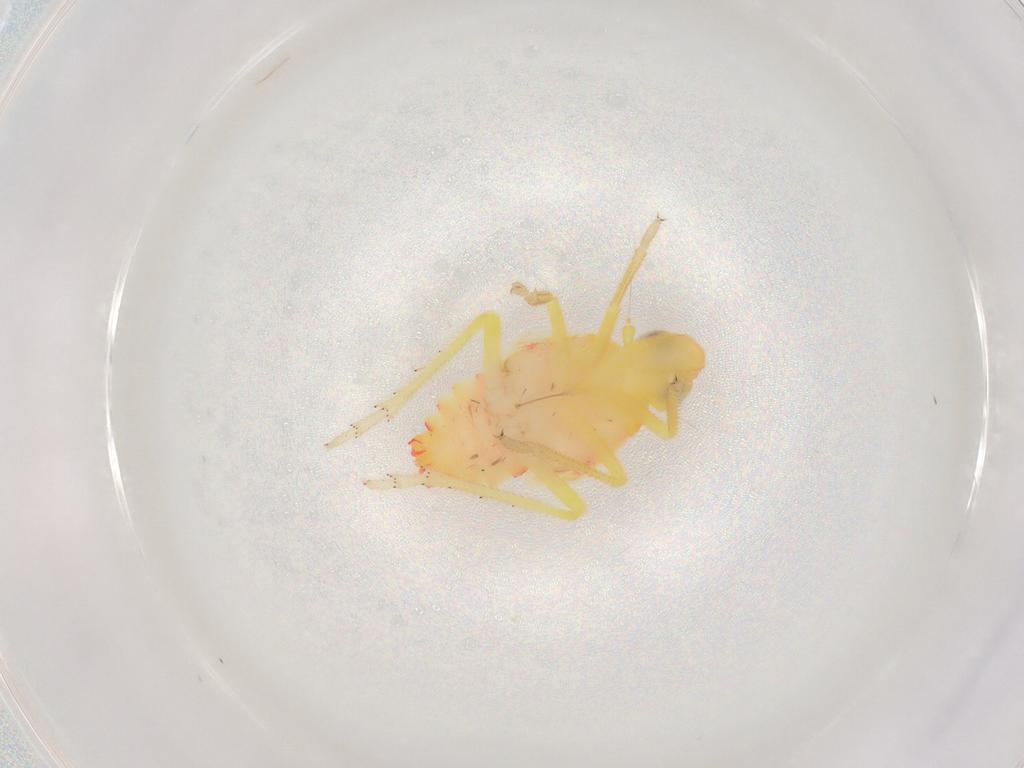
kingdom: Animalia
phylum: Arthropoda
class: Insecta
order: Hemiptera
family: Tropiduchidae
